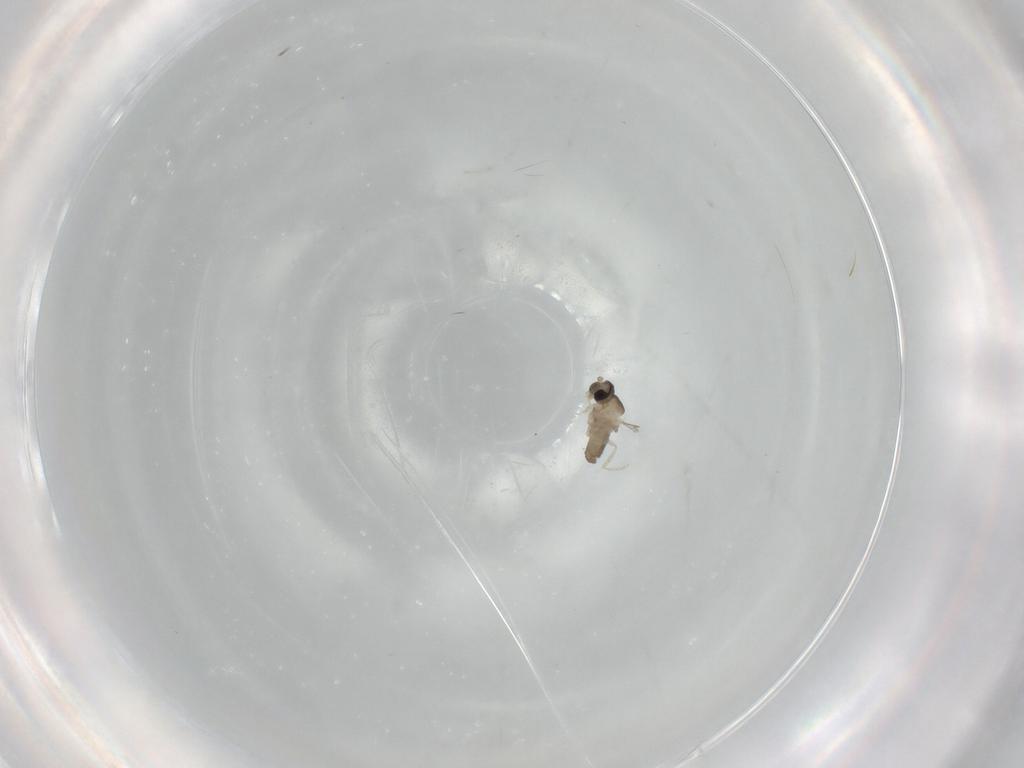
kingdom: Animalia
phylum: Arthropoda
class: Insecta
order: Diptera
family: Cecidomyiidae
